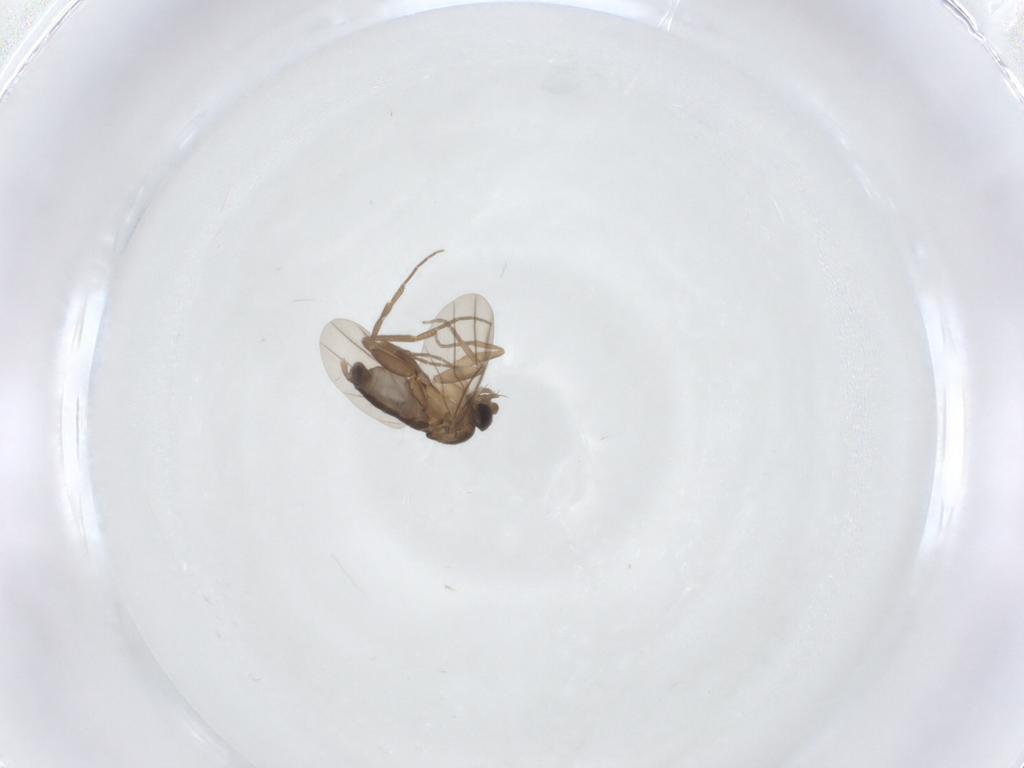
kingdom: Animalia
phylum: Arthropoda
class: Insecta
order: Diptera
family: Phoridae
